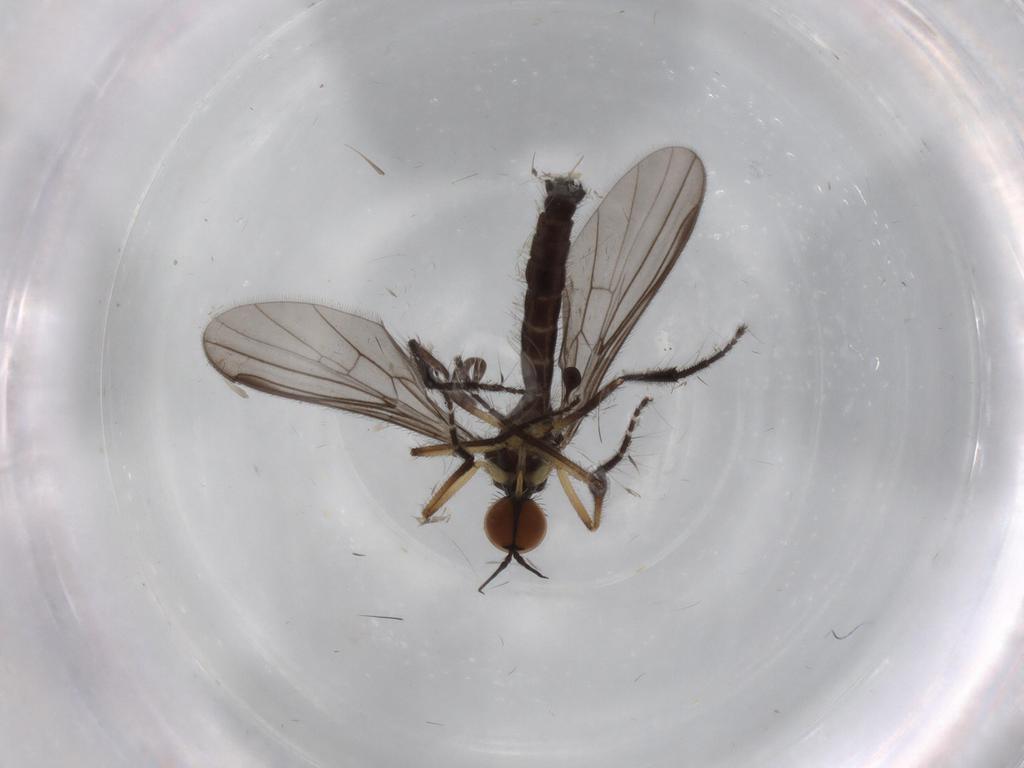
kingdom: Animalia
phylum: Arthropoda
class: Insecta
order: Diptera
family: Empididae
